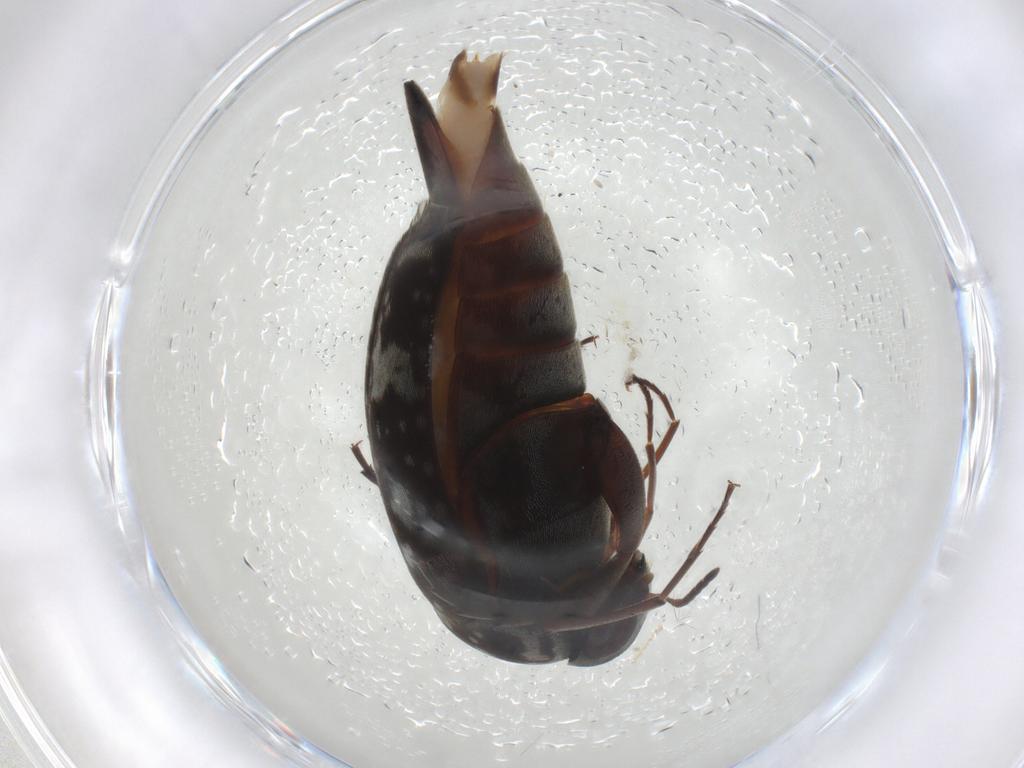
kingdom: Animalia
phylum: Arthropoda
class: Insecta
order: Coleoptera
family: Mordellidae
